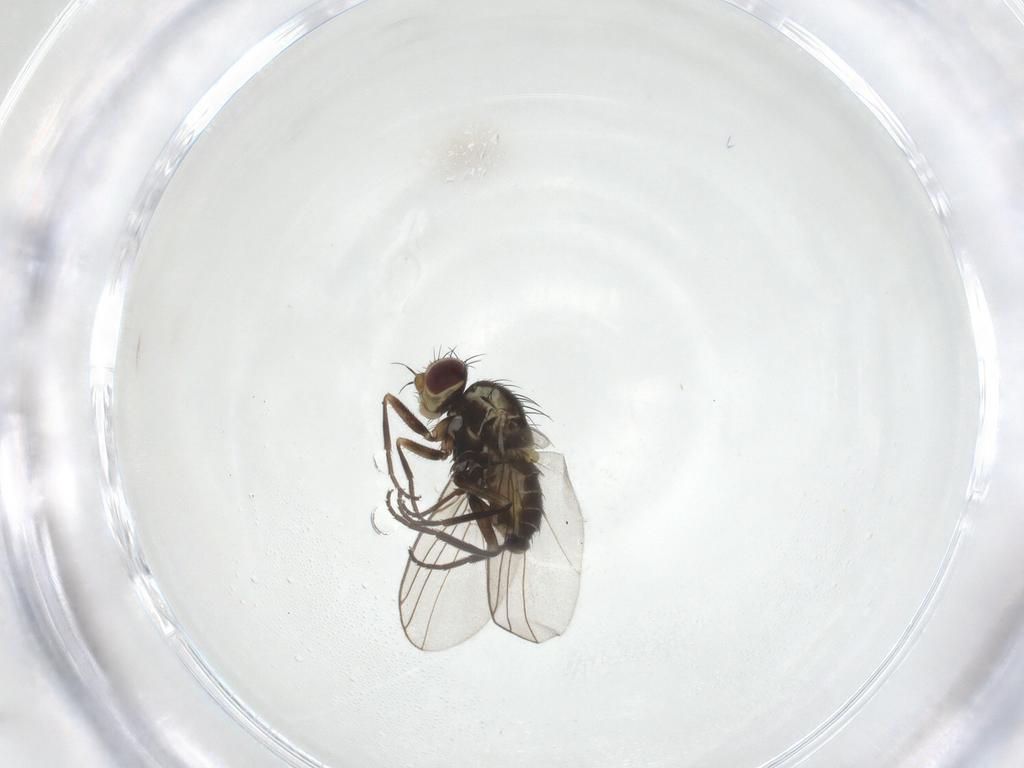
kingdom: Animalia
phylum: Arthropoda
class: Insecta
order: Diptera
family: Agromyzidae
